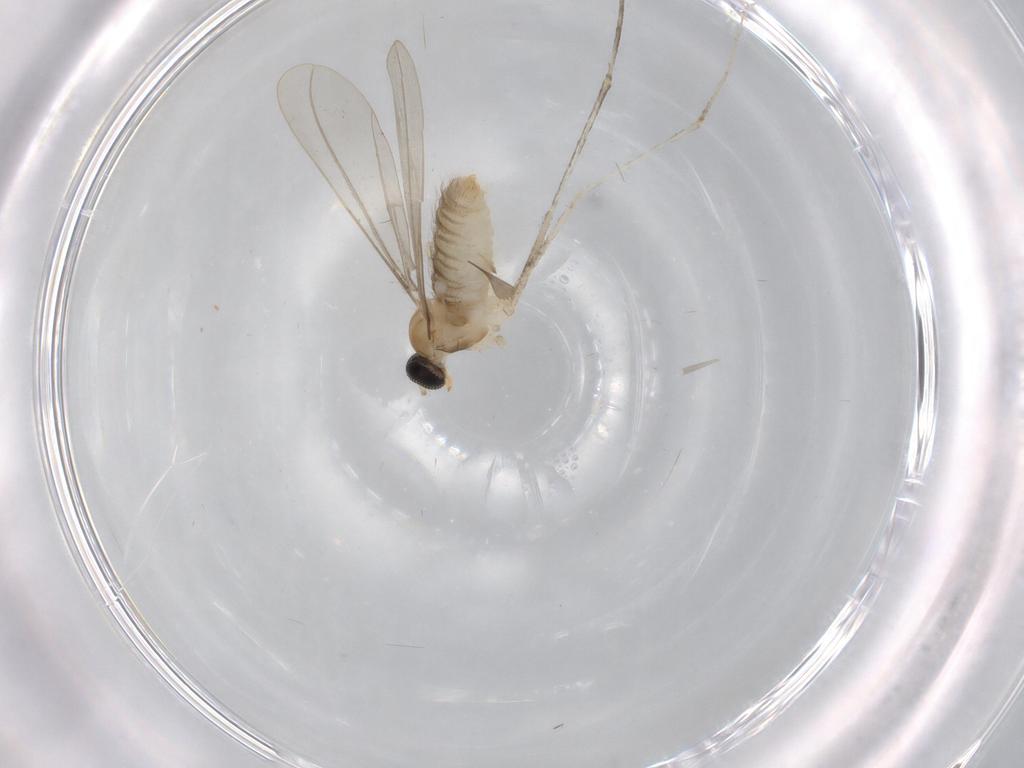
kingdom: Animalia
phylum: Arthropoda
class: Insecta
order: Diptera
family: Cecidomyiidae
